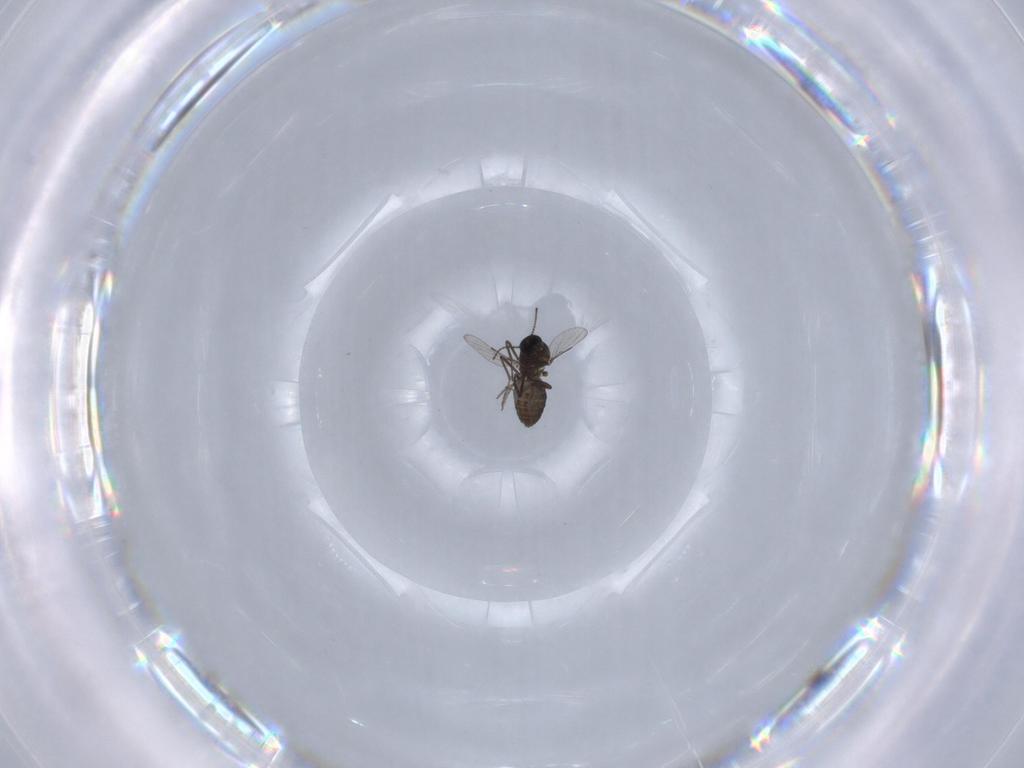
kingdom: Animalia
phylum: Arthropoda
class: Insecta
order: Diptera
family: Ceratopogonidae
